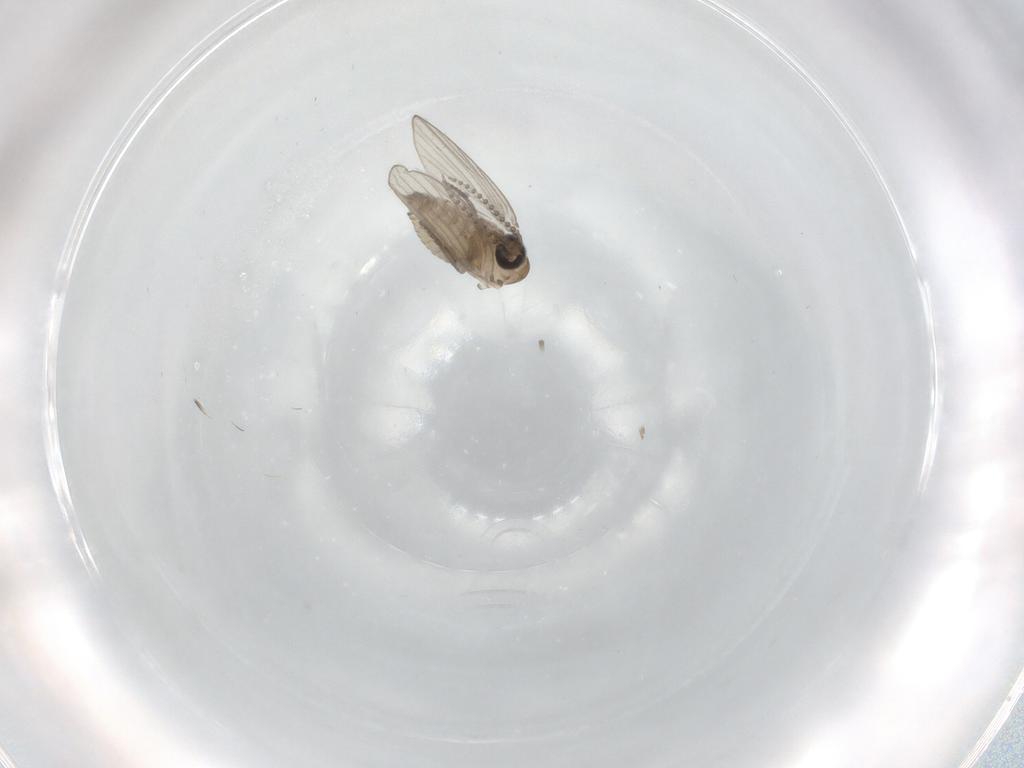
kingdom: Animalia
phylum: Arthropoda
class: Insecta
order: Diptera
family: Psychodidae
